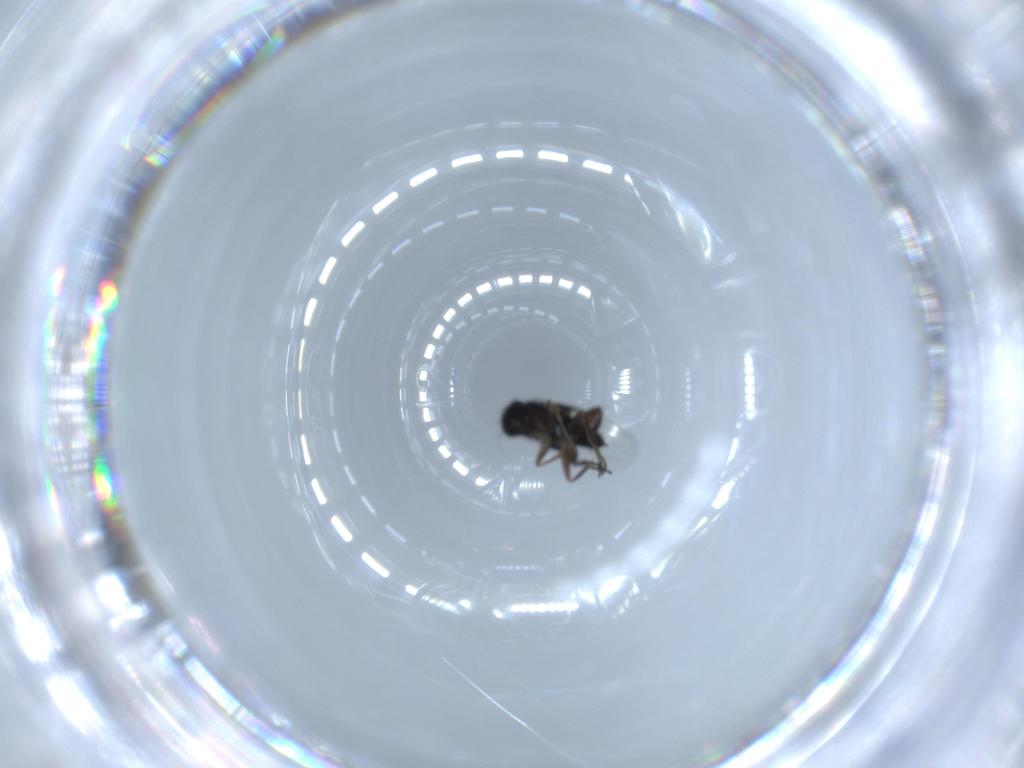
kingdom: Animalia
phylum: Arthropoda
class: Insecta
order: Diptera
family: Phoridae
